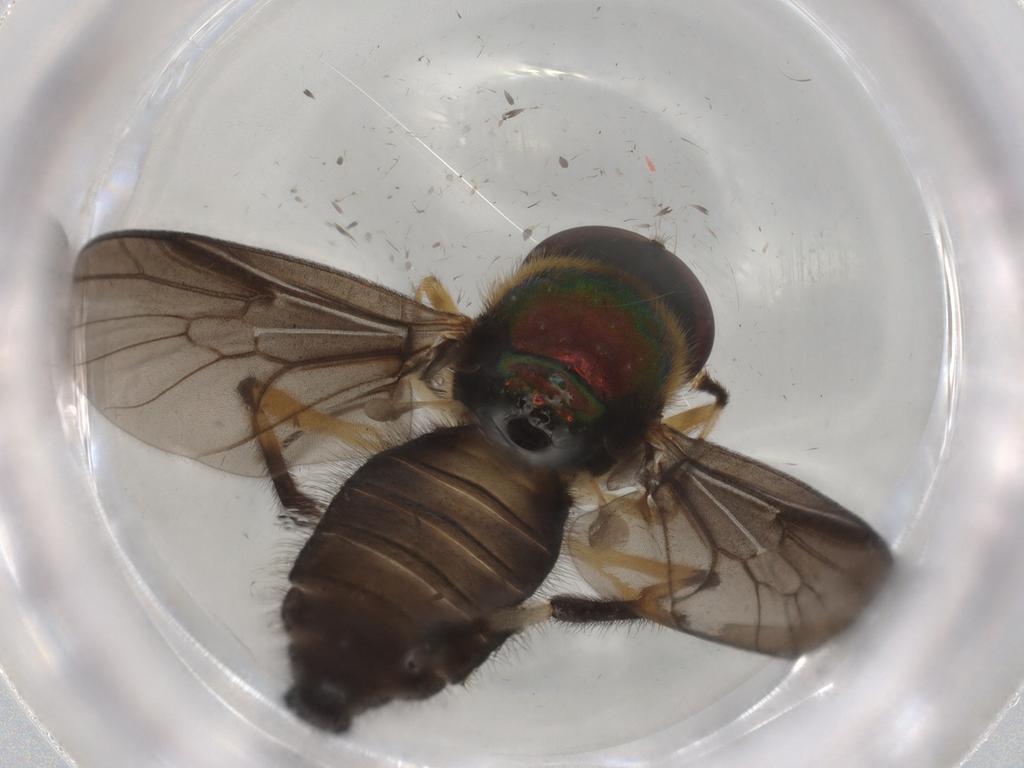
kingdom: Animalia
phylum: Arthropoda
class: Insecta
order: Diptera
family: Stratiomyidae
